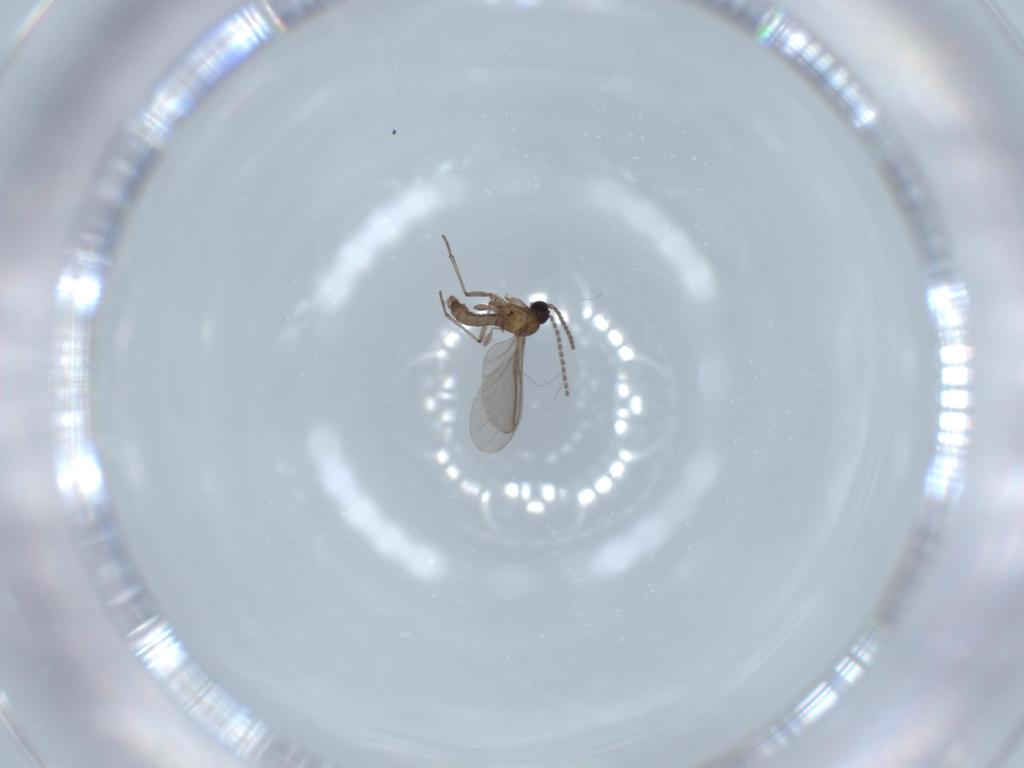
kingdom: Animalia
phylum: Arthropoda
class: Insecta
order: Diptera
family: Sciaridae
